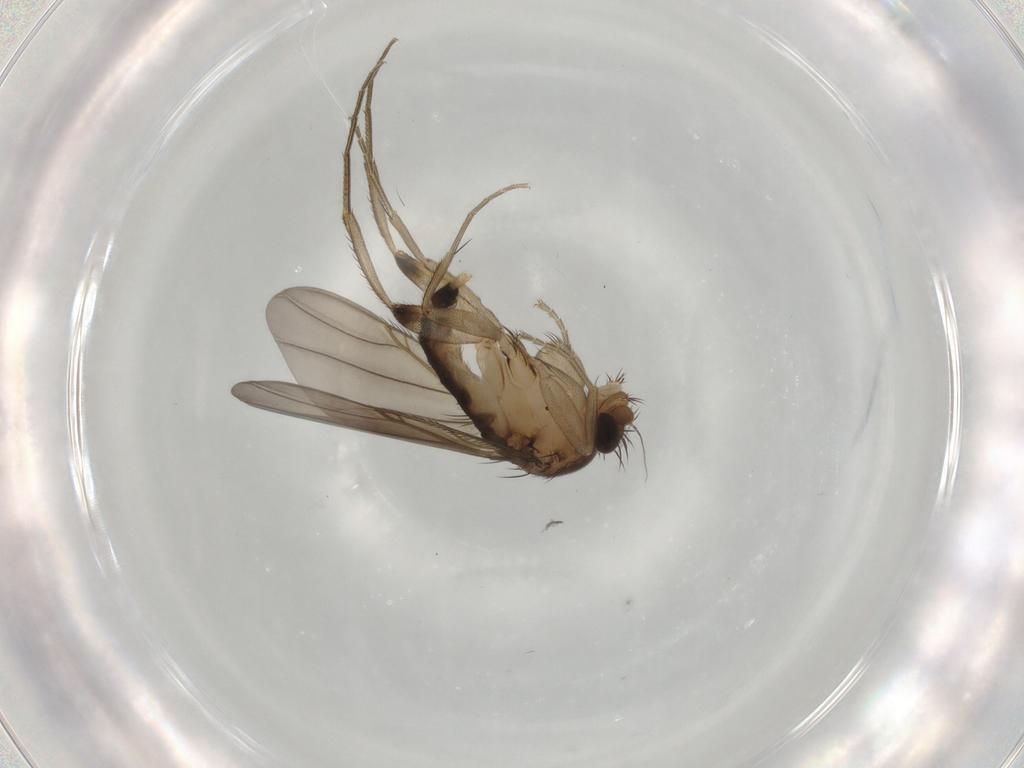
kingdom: Animalia
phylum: Arthropoda
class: Insecta
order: Diptera
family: Phoridae
